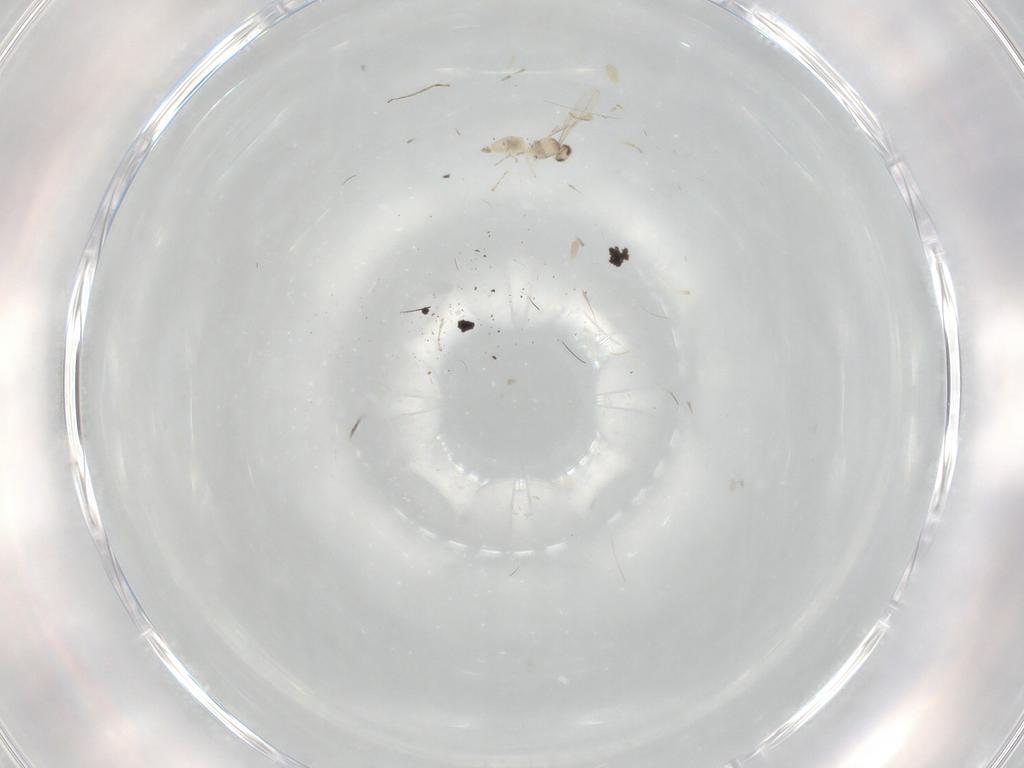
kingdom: Animalia
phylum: Arthropoda
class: Insecta
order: Diptera
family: Cecidomyiidae
